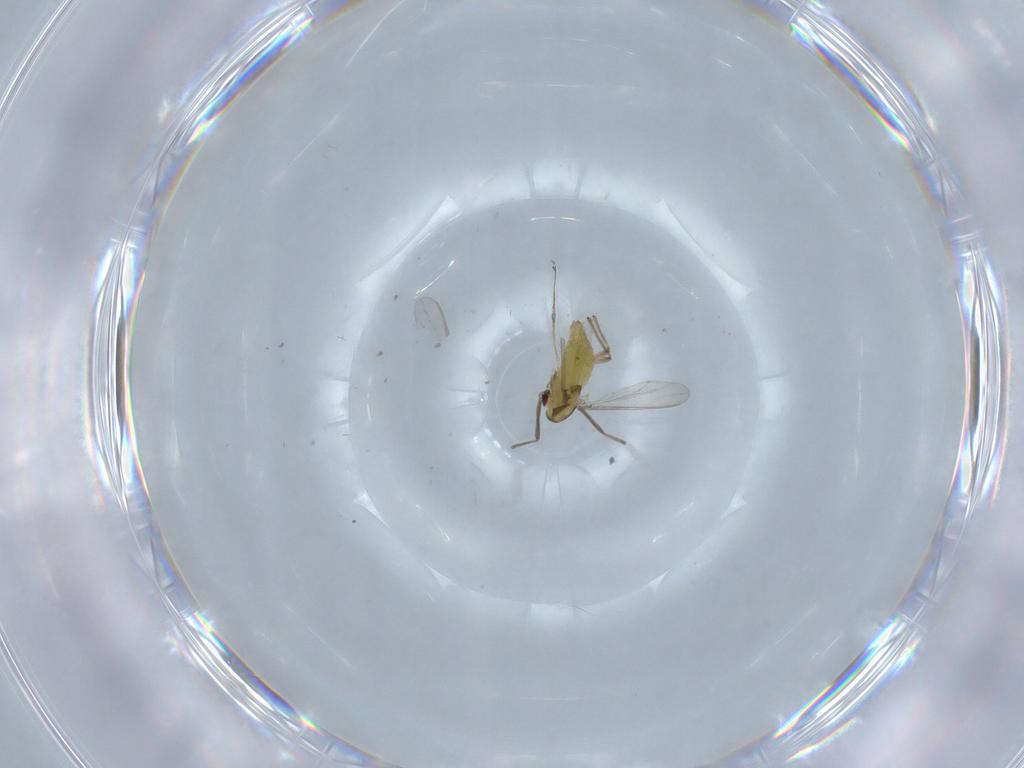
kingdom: Animalia
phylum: Arthropoda
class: Insecta
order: Diptera
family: Chironomidae
